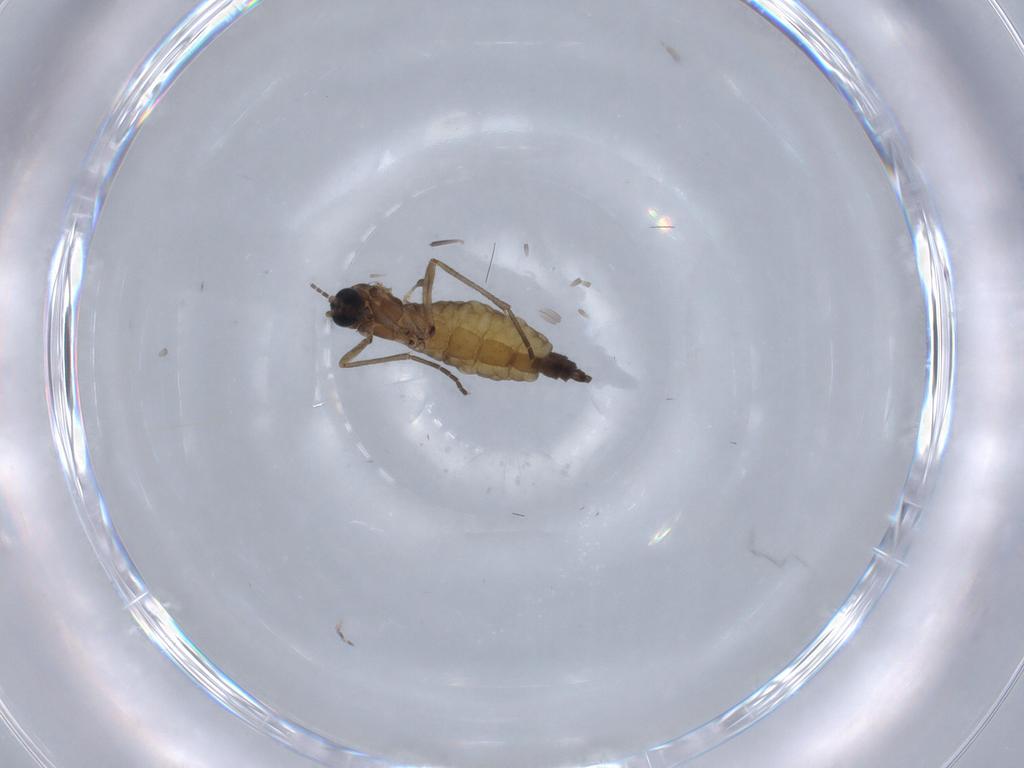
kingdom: Animalia
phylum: Arthropoda
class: Insecta
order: Diptera
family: Sciaridae
